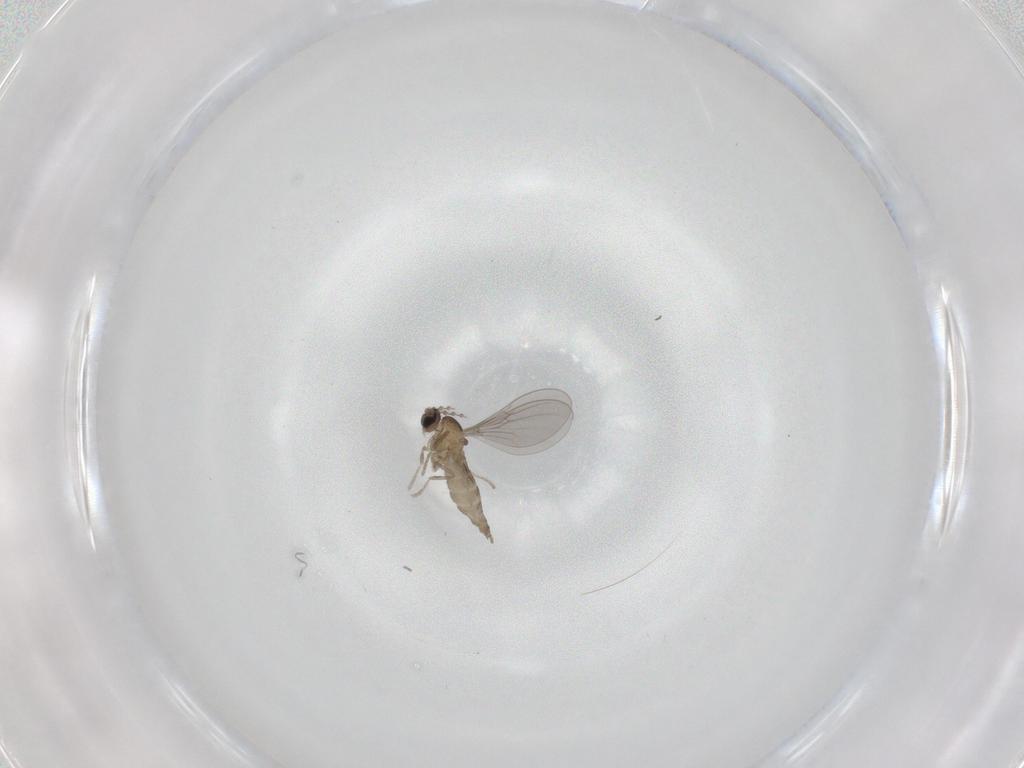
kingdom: Animalia
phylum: Arthropoda
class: Insecta
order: Diptera
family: Cecidomyiidae
